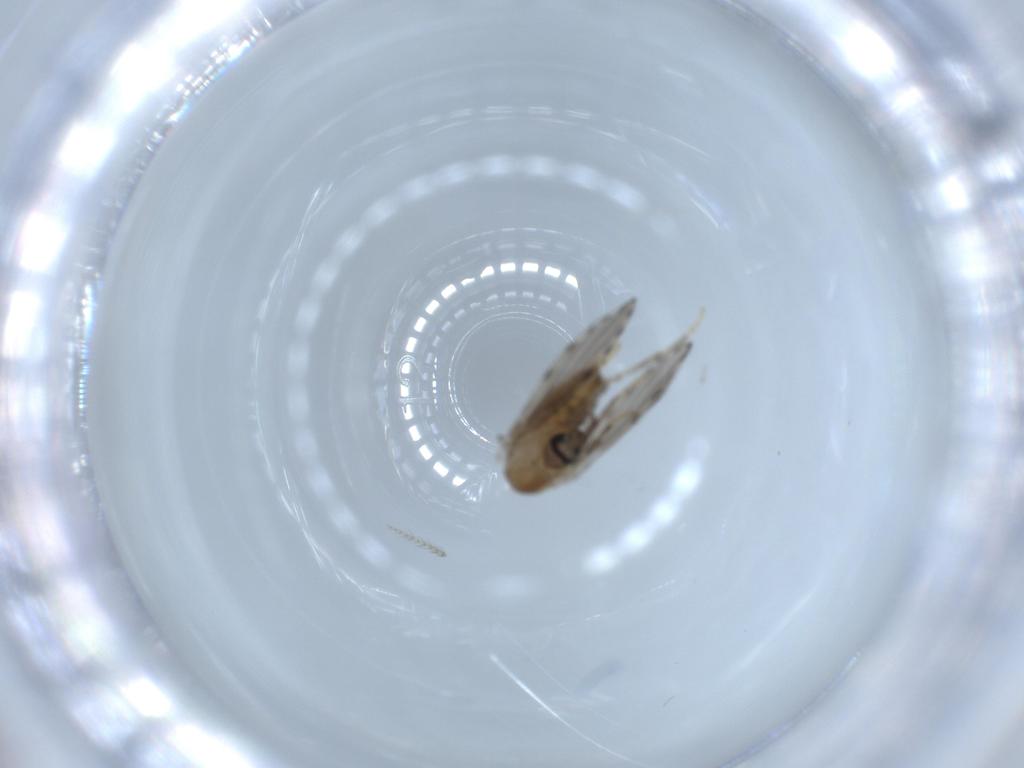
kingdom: Animalia
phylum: Arthropoda
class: Insecta
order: Diptera
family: Psychodidae
